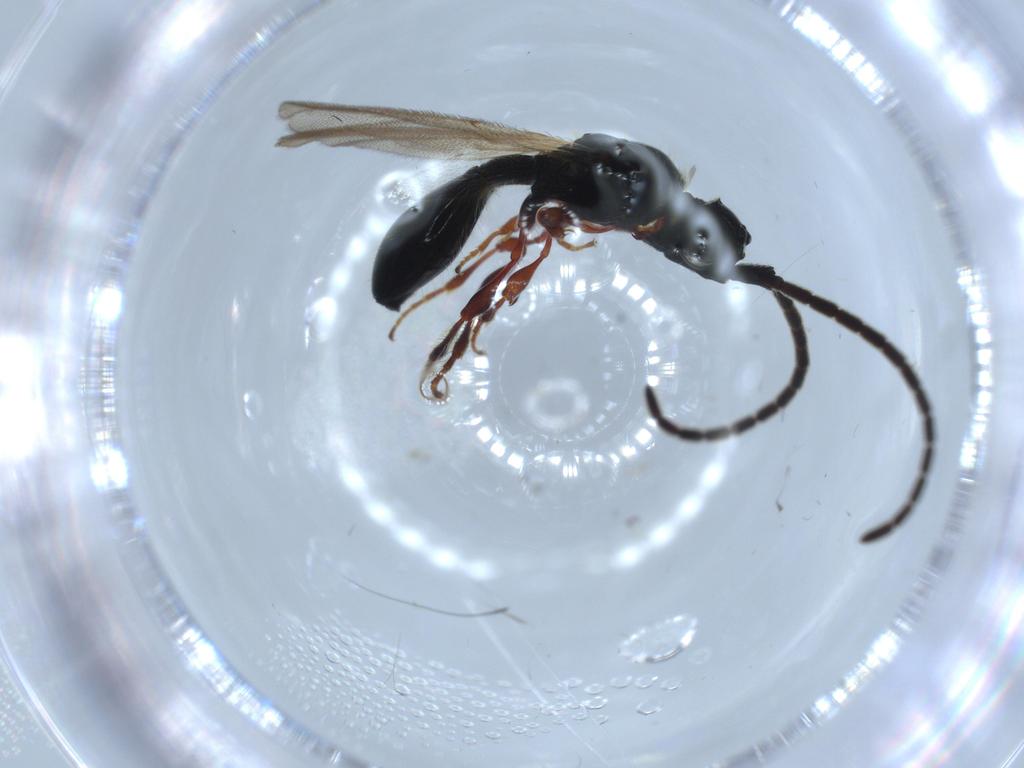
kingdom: Animalia
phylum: Arthropoda
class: Insecta
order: Hymenoptera
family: Diapriidae
